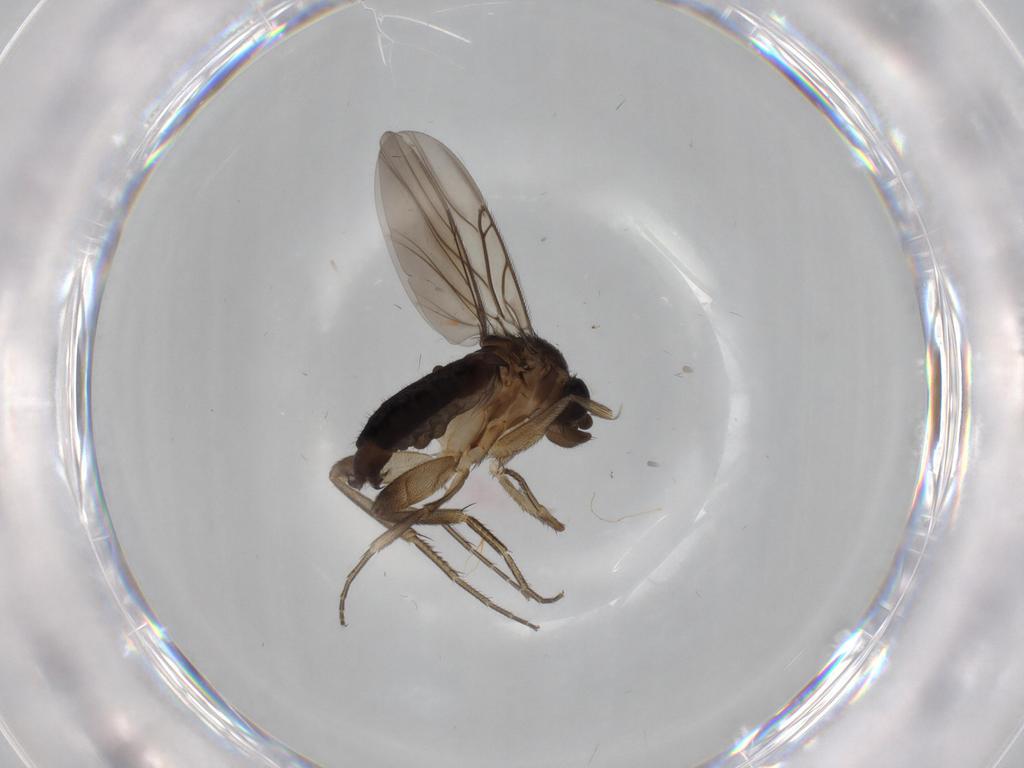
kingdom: Animalia
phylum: Arthropoda
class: Insecta
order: Diptera
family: Phoridae
